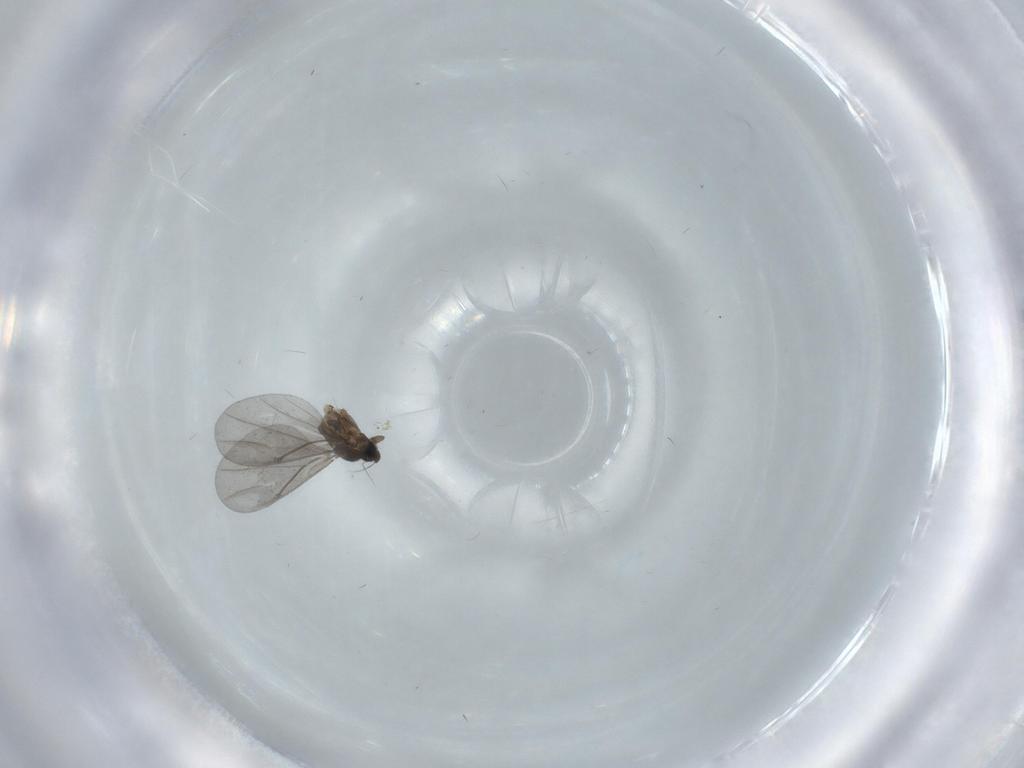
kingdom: Animalia
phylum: Arthropoda
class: Insecta
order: Diptera
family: Phoridae
